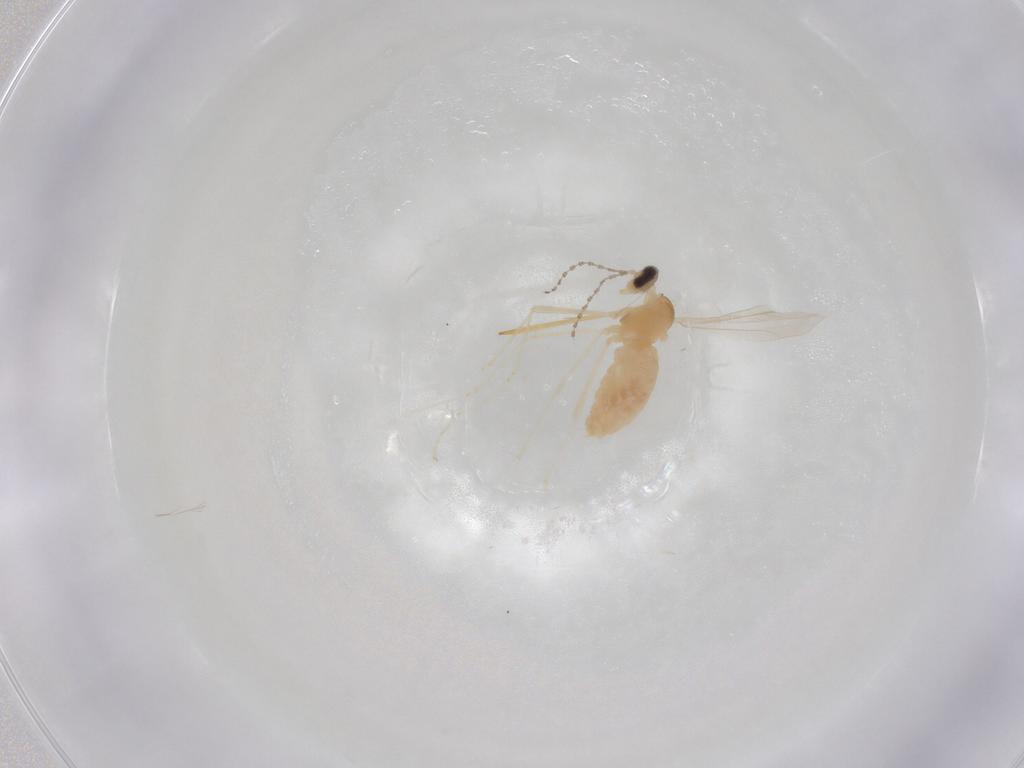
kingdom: Animalia
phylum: Arthropoda
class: Insecta
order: Diptera
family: Cecidomyiidae
